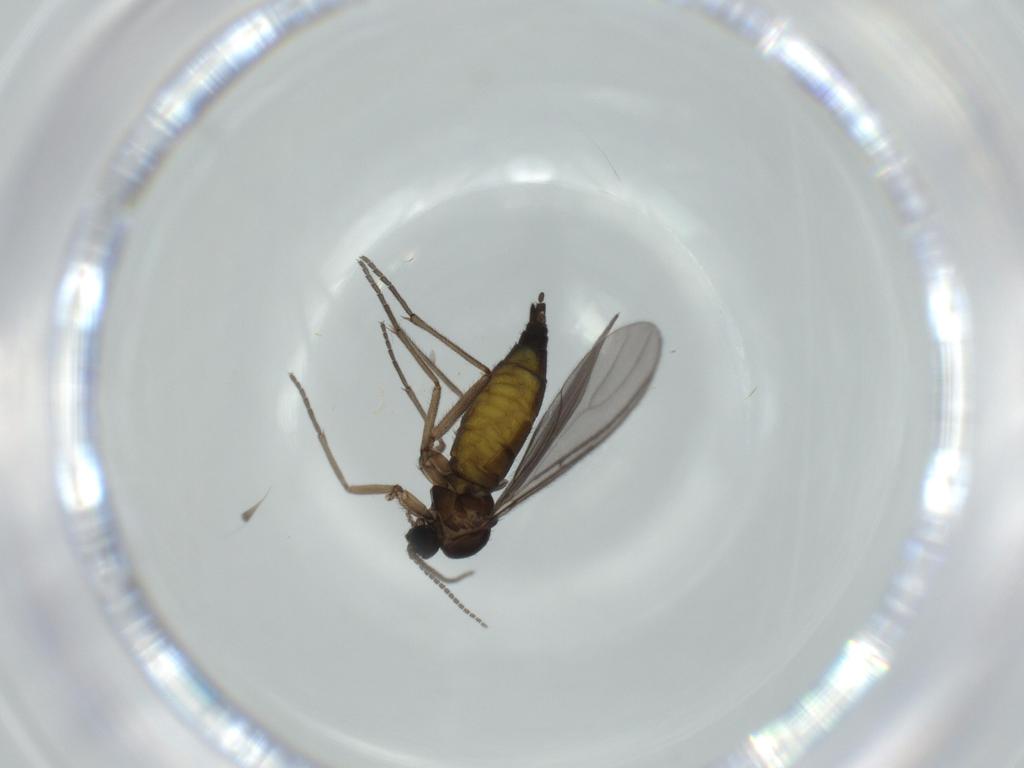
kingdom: Animalia
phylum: Arthropoda
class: Insecta
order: Diptera
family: Sciaridae
